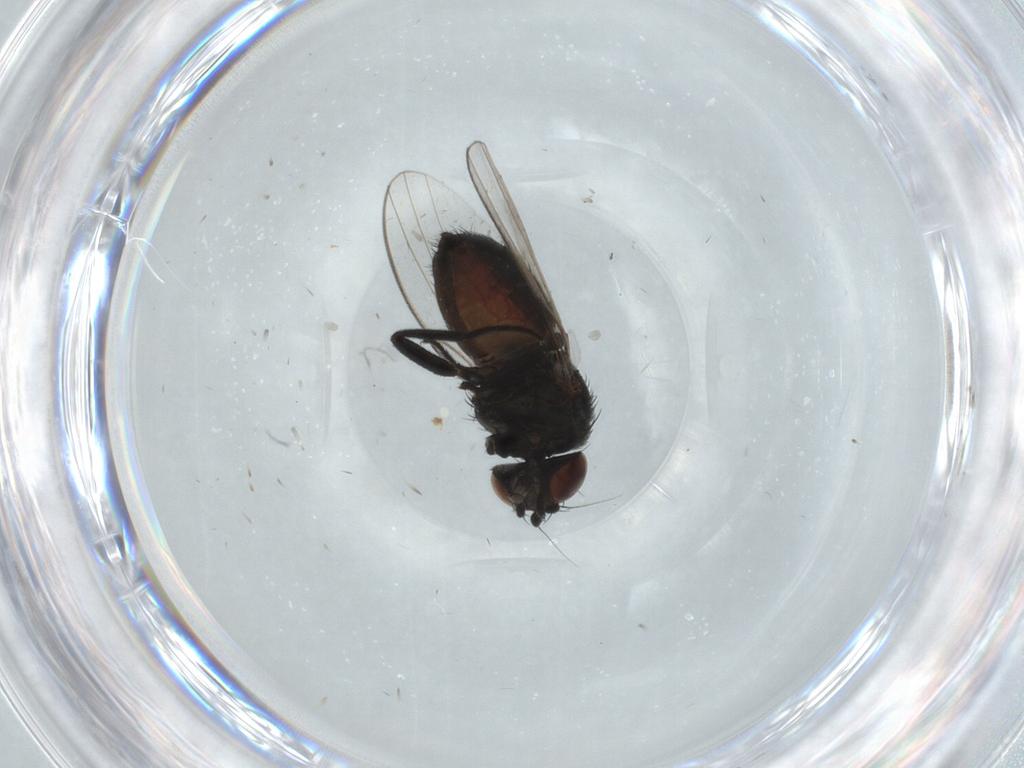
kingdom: Animalia
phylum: Arthropoda
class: Insecta
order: Diptera
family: Milichiidae
